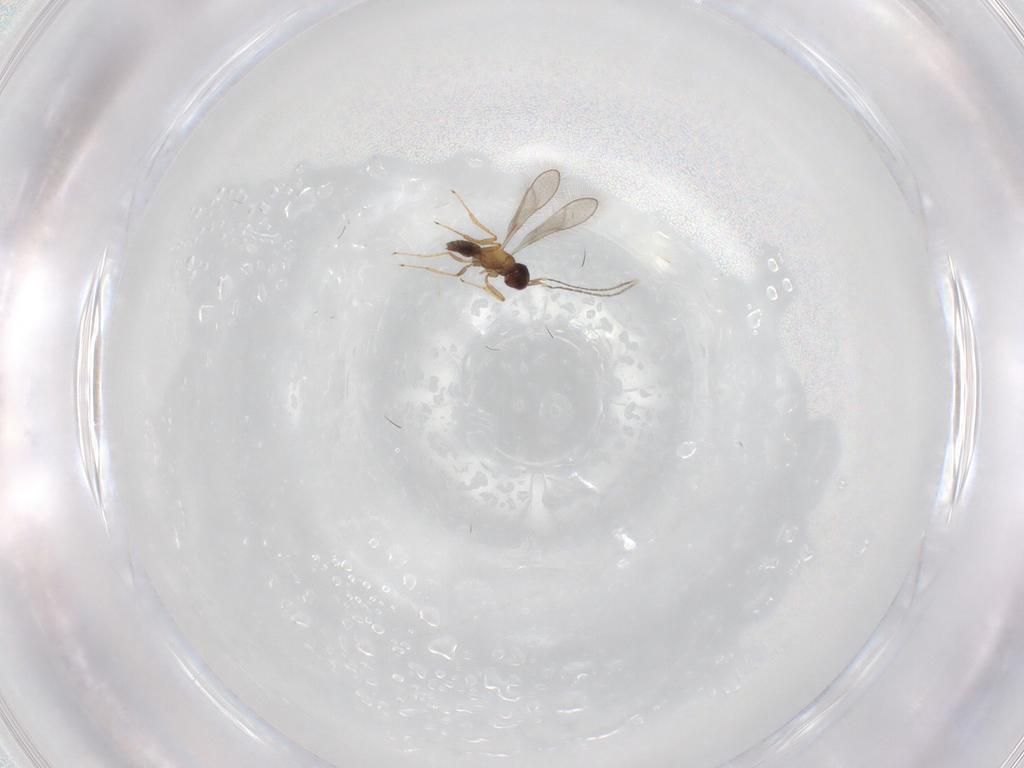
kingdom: Animalia
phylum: Arthropoda
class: Insecta
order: Hymenoptera
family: Mymaridae
